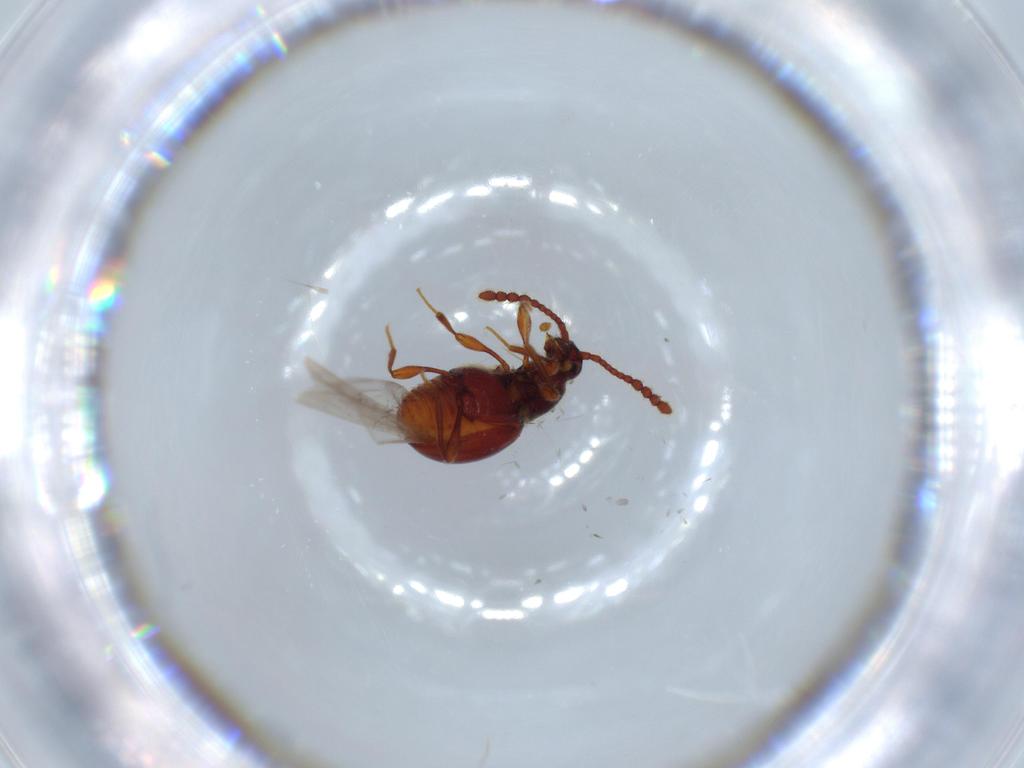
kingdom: Animalia
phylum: Arthropoda
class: Insecta
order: Coleoptera
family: Staphylinidae
